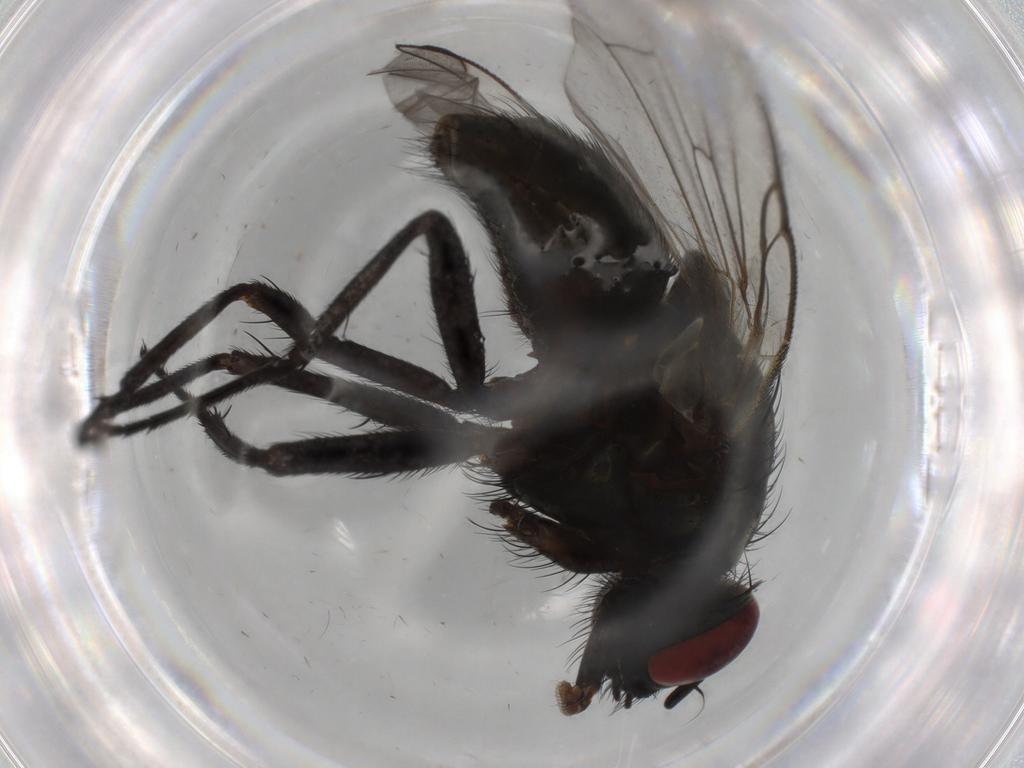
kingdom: Animalia
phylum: Arthropoda
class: Insecta
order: Diptera
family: Muscidae
